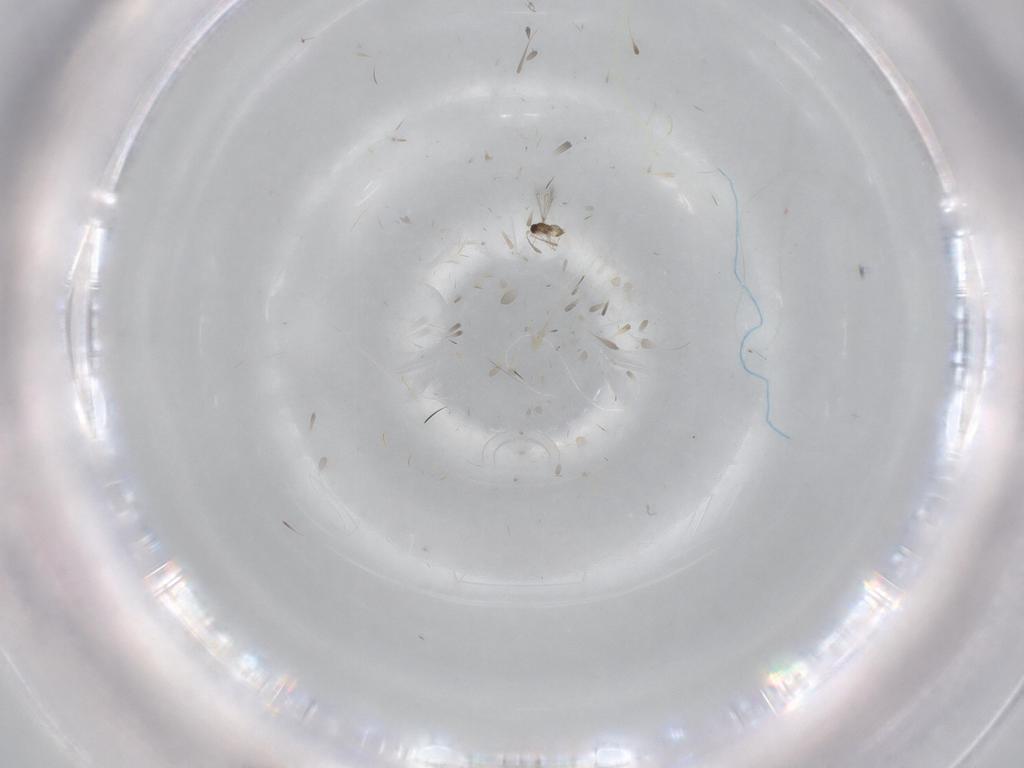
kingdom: Animalia
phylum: Arthropoda
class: Insecta
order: Hymenoptera
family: Mymaridae
